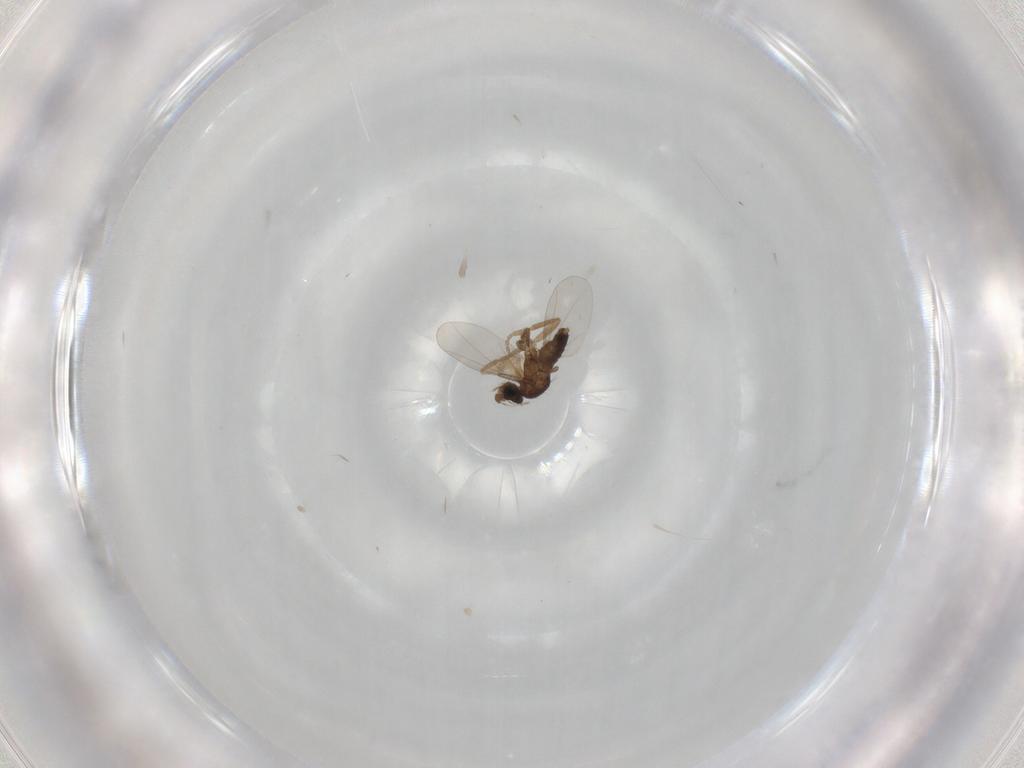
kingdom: Animalia
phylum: Arthropoda
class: Insecta
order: Diptera
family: Phoridae
